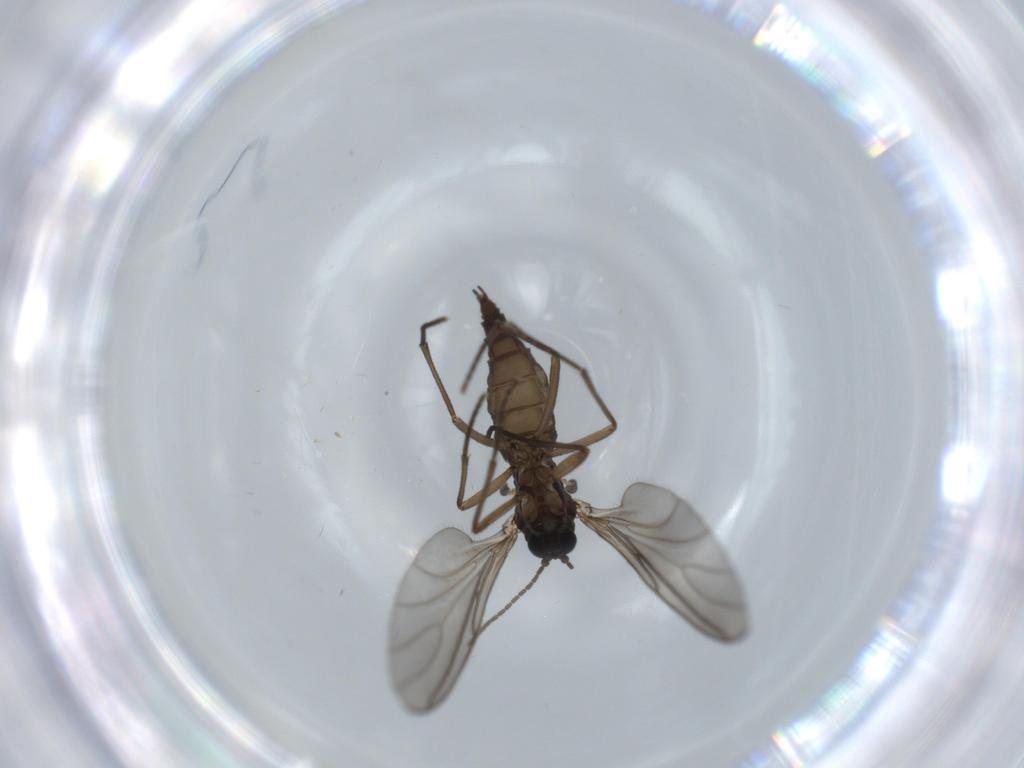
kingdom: Animalia
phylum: Arthropoda
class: Insecta
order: Diptera
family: Sciaridae
